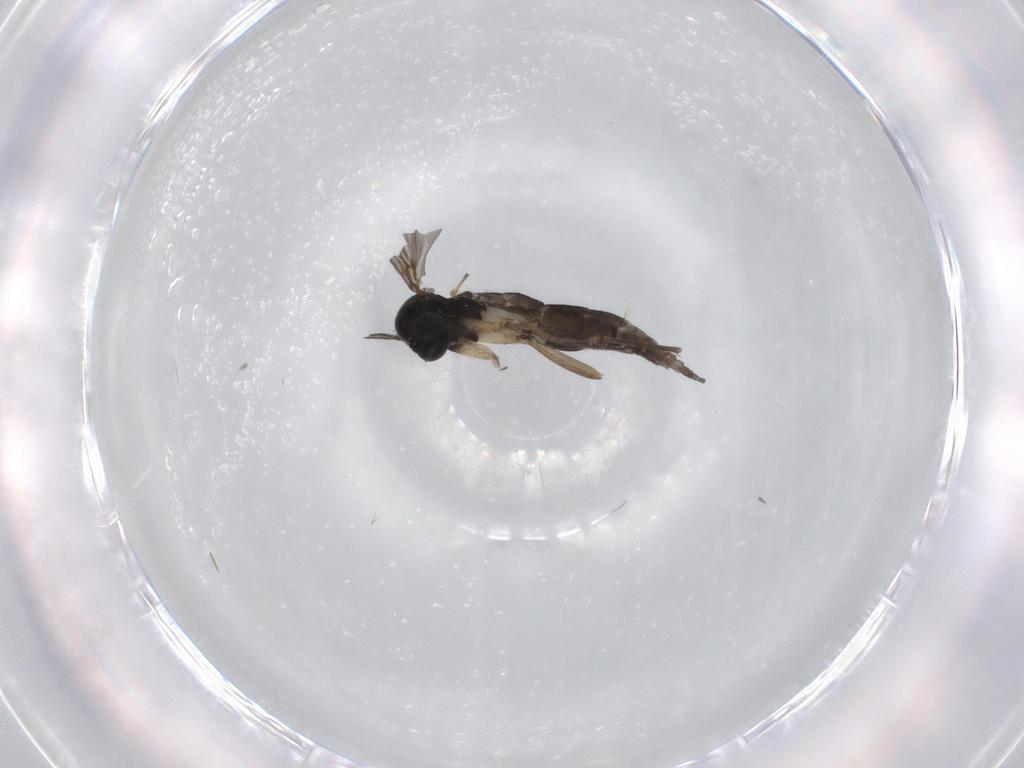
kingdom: Animalia
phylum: Arthropoda
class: Insecta
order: Diptera
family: Sciaridae
